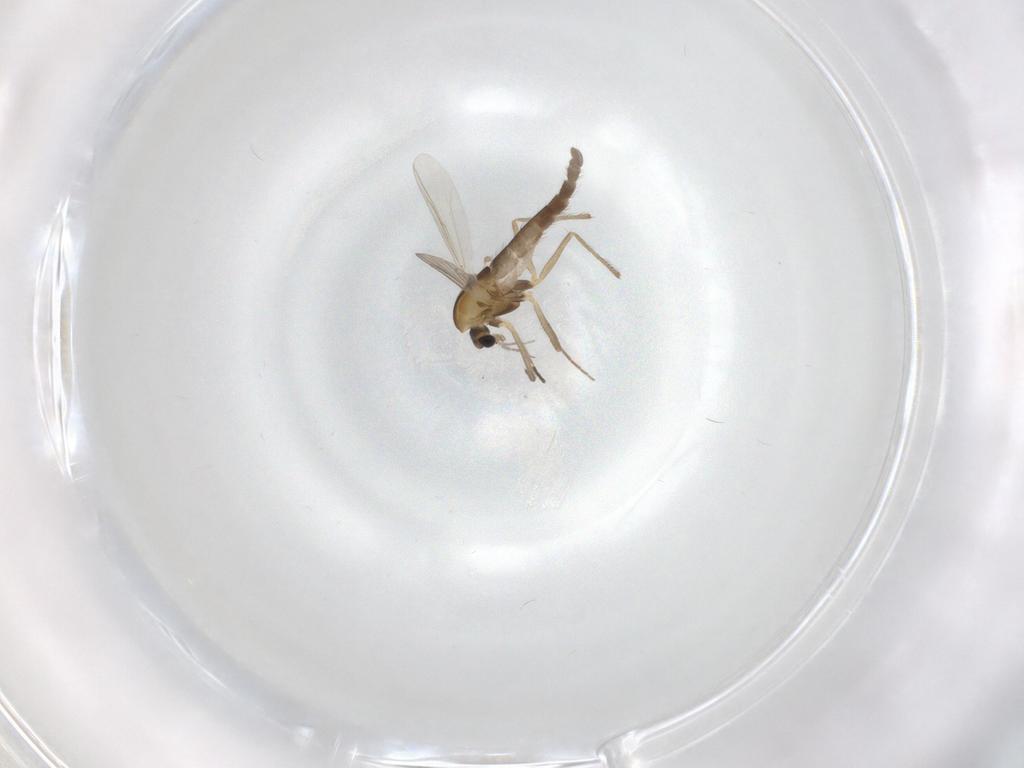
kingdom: Animalia
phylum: Arthropoda
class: Insecta
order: Diptera
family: Chironomidae
